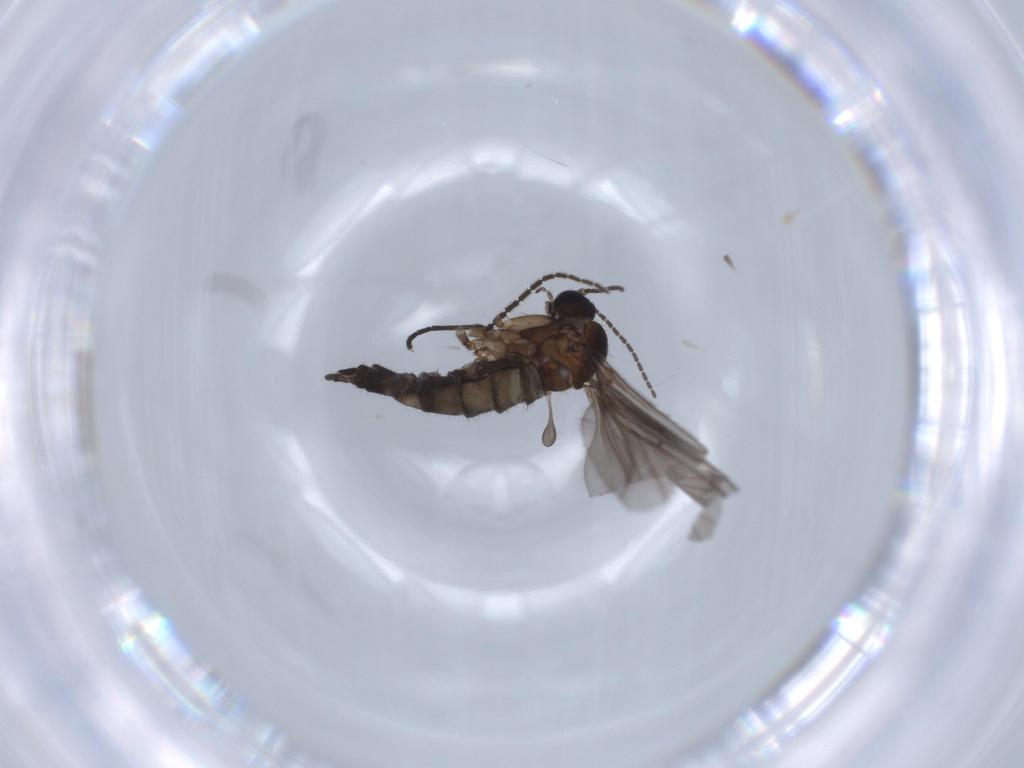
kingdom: Animalia
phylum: Arthropoda
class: Insecta
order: Diptera
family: Sciaridae
